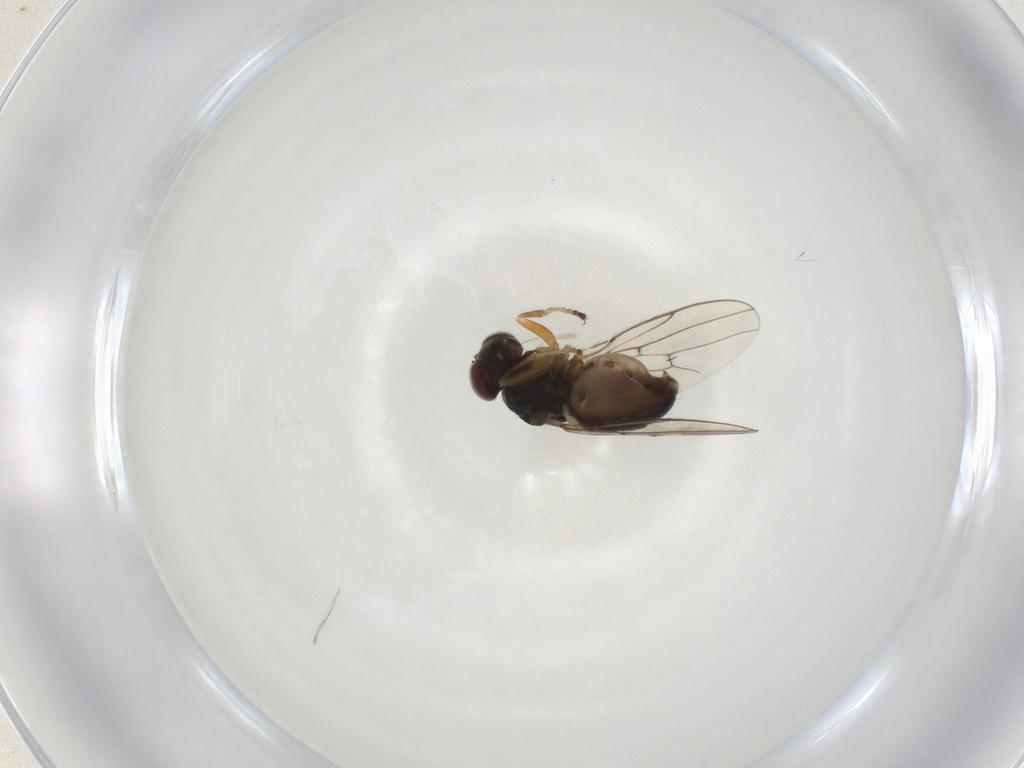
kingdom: Animalia
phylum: Arthropoda
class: Insecta
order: Diptera
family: Ephydridae
